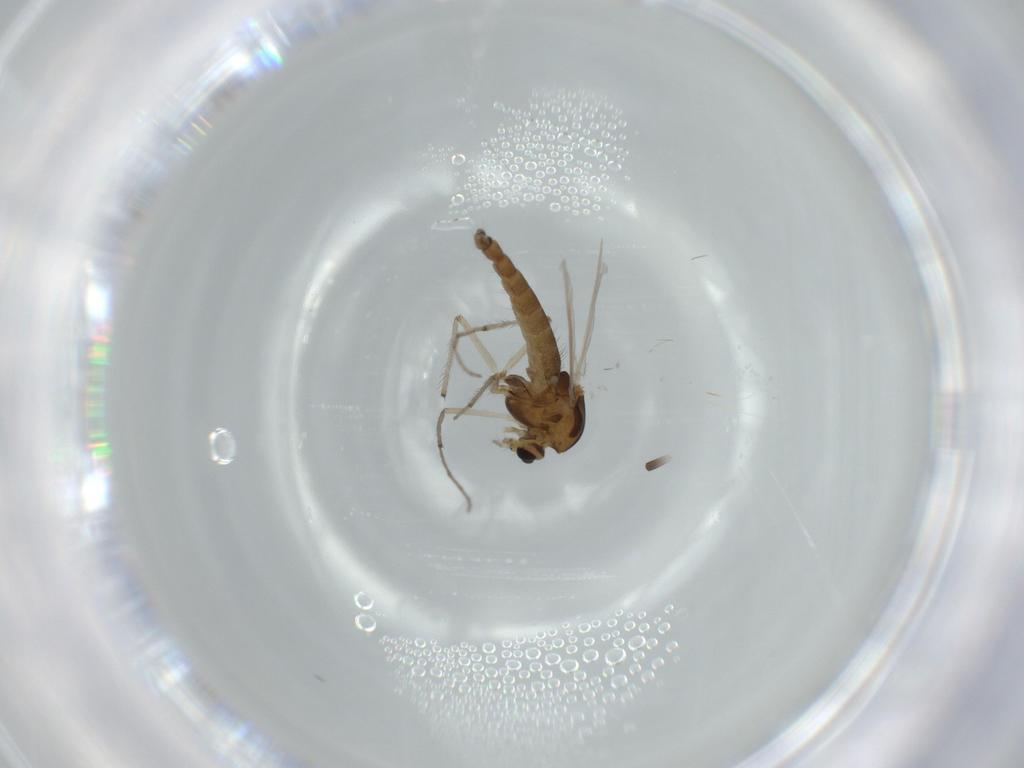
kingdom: Animalia
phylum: Arthropoda
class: Insecta
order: Diptera
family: Chironomidae
